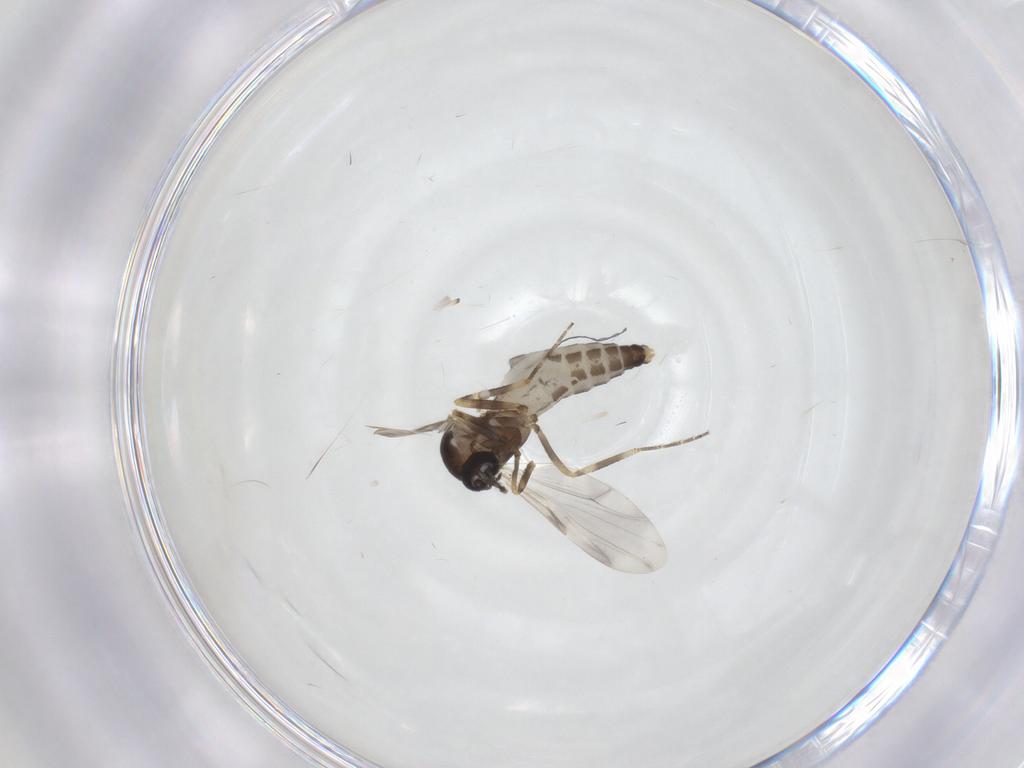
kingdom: Animalia
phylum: Arthropoda
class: Insecta
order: Diptera
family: Ceratopogonidae
